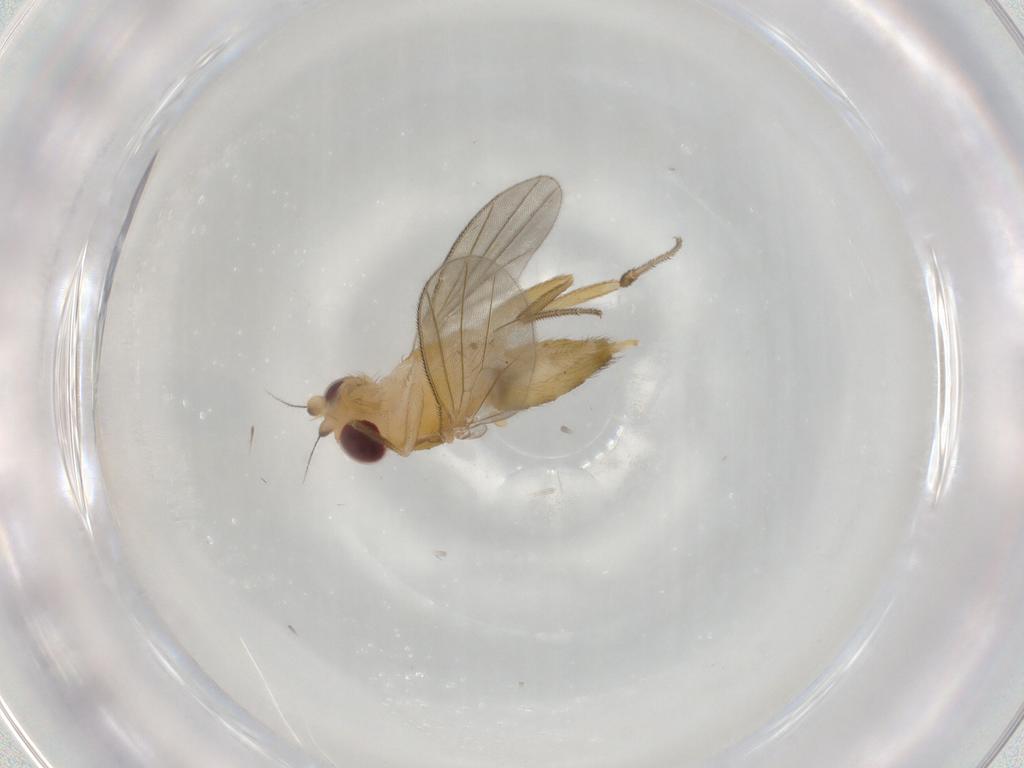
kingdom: Animalia
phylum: Arthropoda
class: Insecta
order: Diptera
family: Clusiidae
